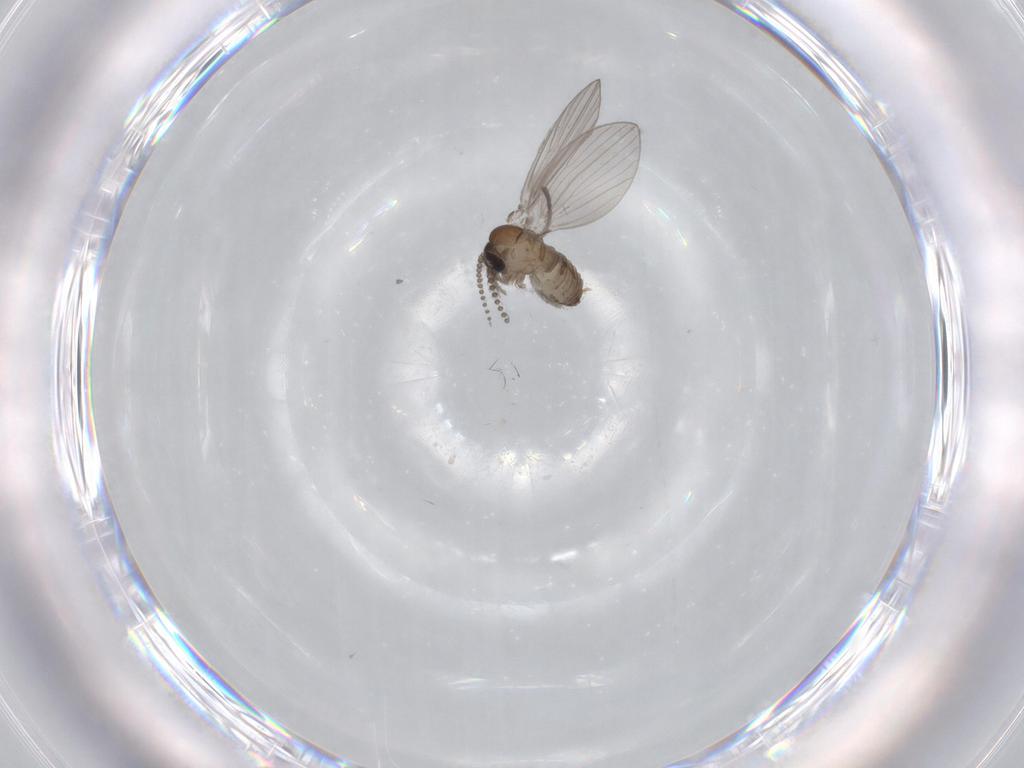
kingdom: Animalia
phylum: Arthropoda
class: Insecta
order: Diptera
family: Psychodidae
